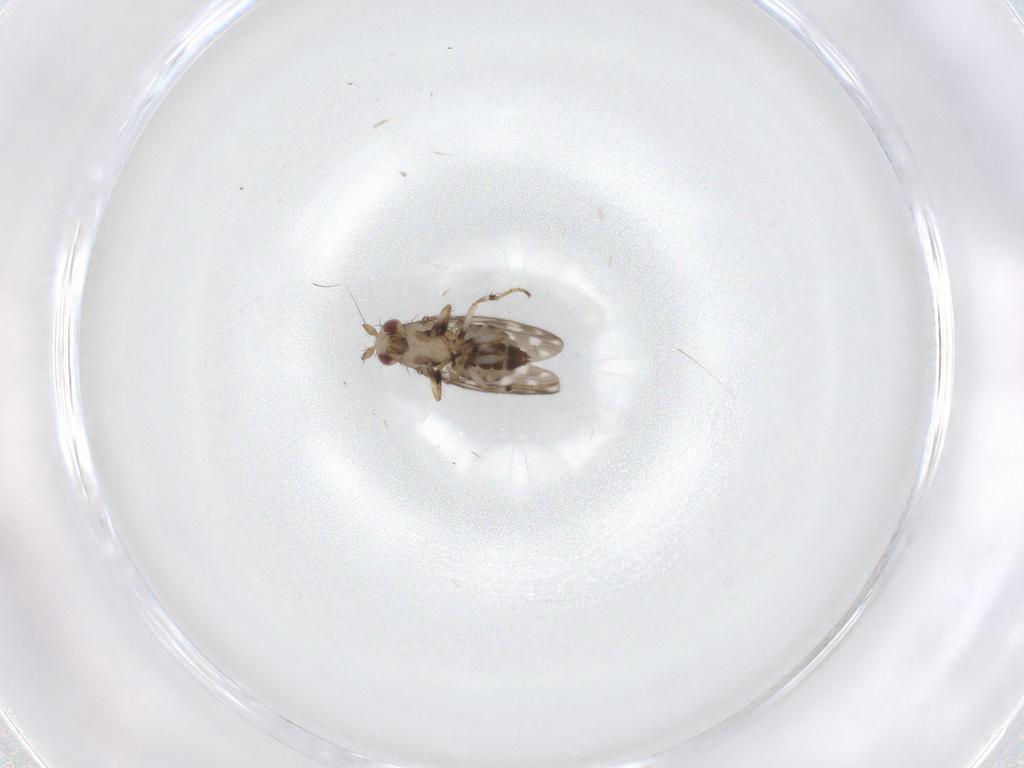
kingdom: Animalia
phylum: Arthropoda
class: Insecta
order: Diptera
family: Sphaeroceridae
